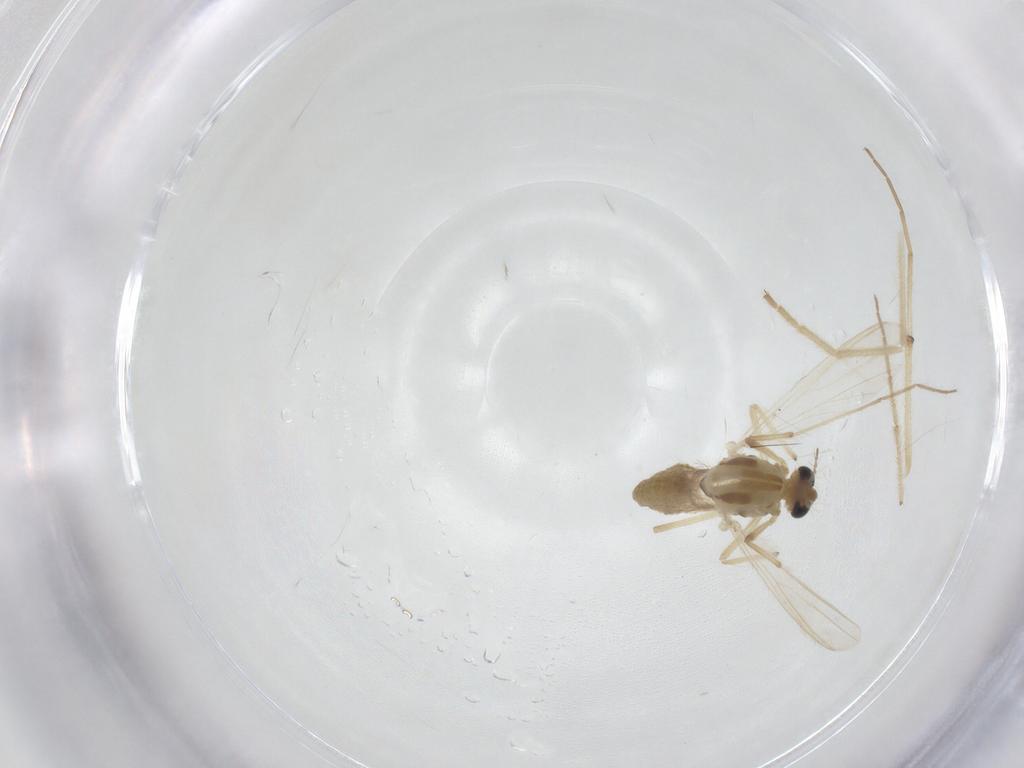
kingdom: Animalia
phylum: Arthropoda
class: Insecta
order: Diptera
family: Chironomidae
